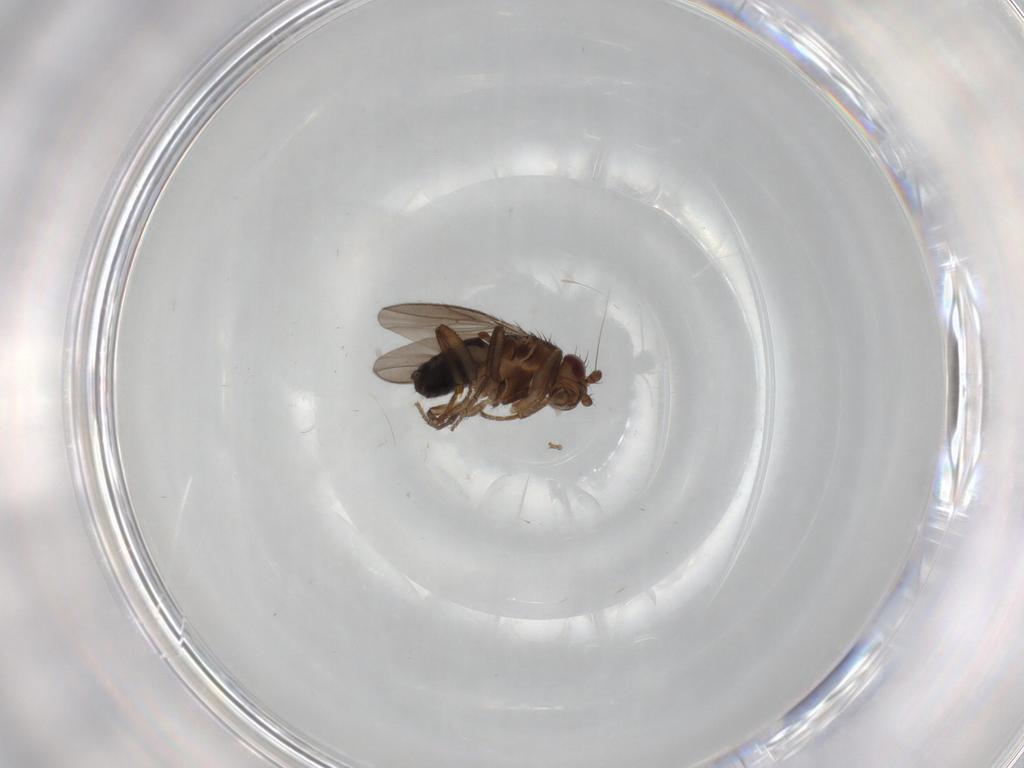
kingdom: Animalia
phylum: Arthropoda
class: Insecta
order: Diptera
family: Sphaeroceridae
